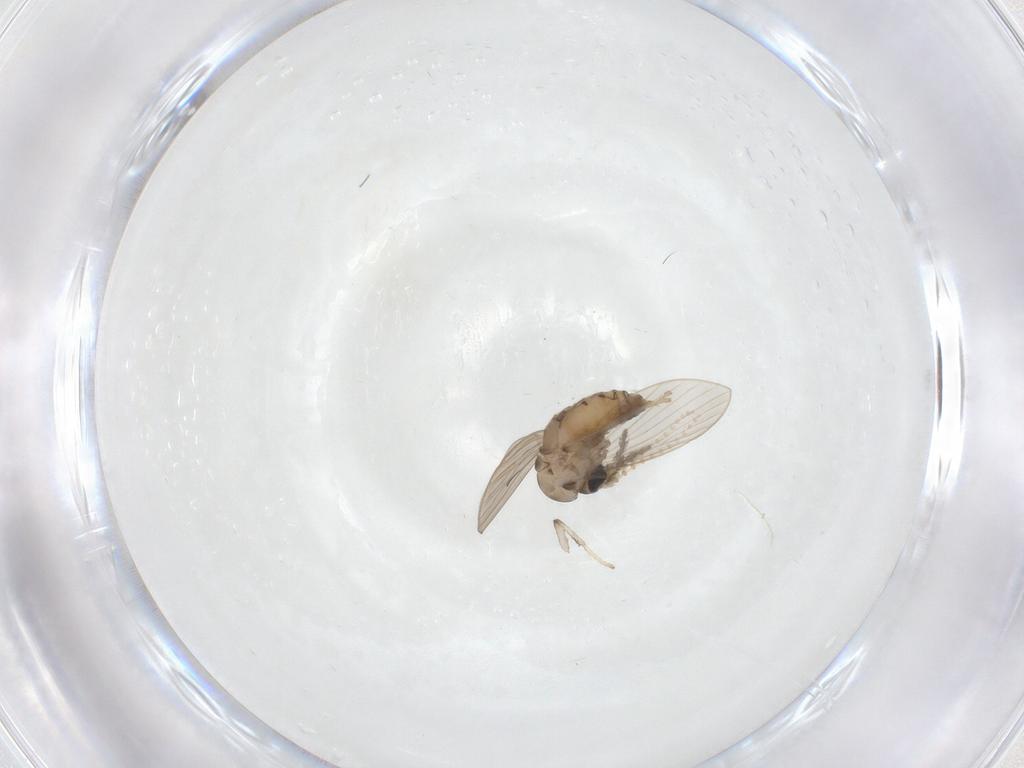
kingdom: Animalia
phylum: Arthropoda
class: Insecta
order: Diptera
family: Psychodidae
